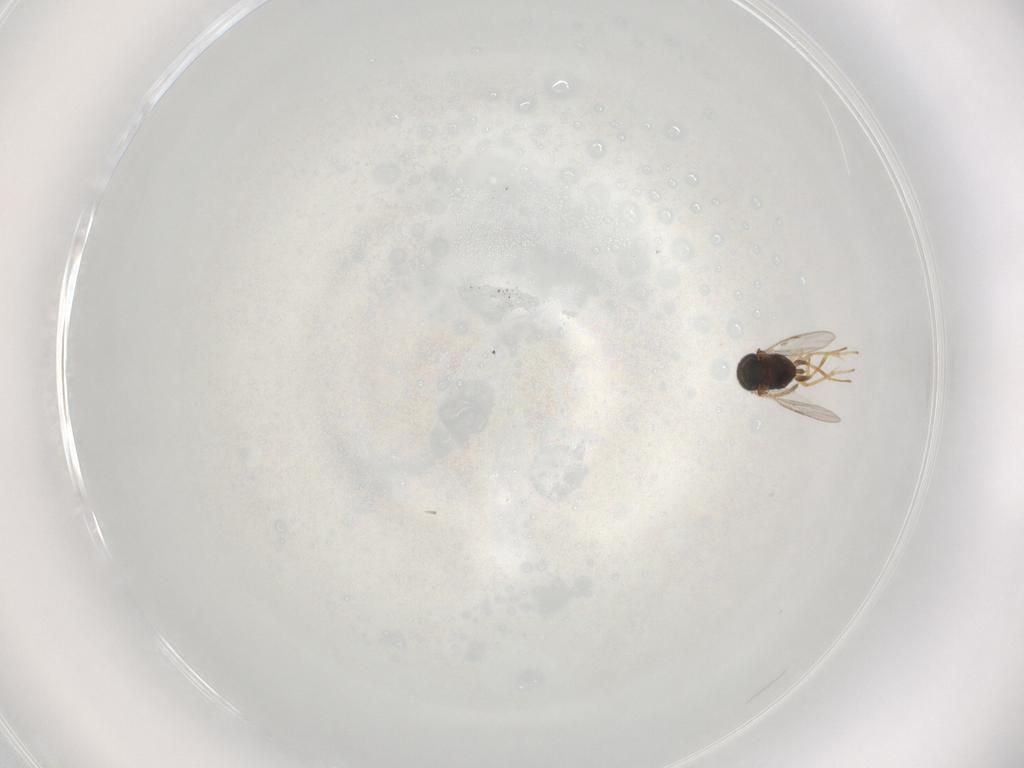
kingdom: Animalia
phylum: Arthropoda
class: Insecta
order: Hymenoptera
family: Encyrtidae
